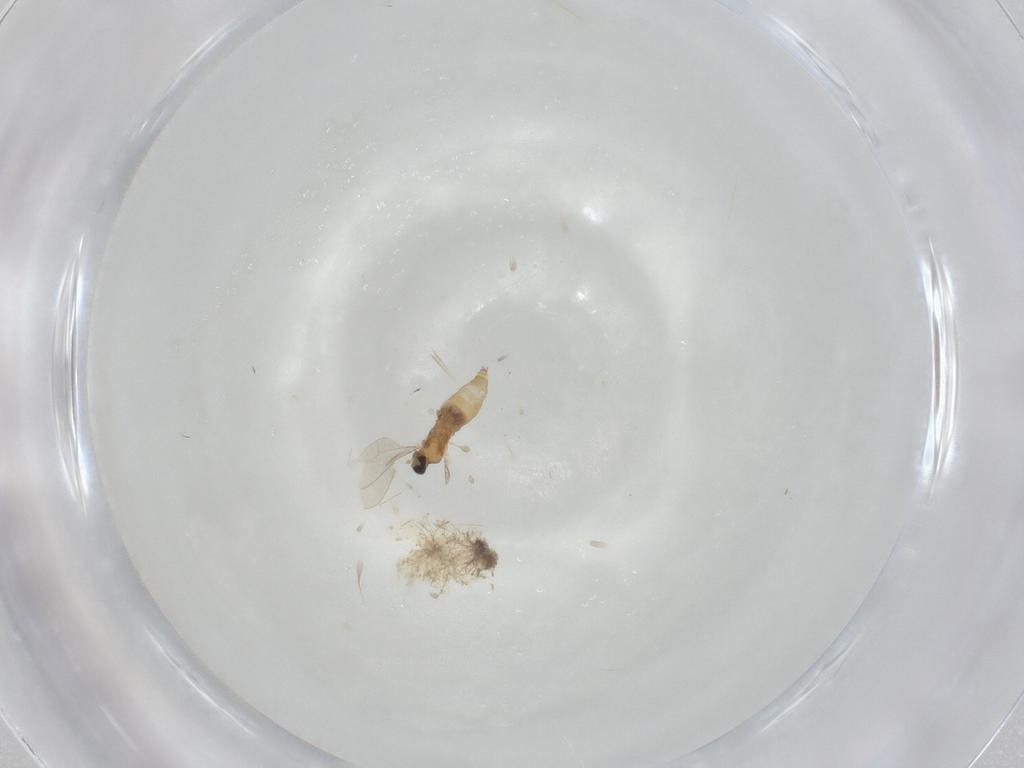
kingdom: Animalia
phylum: Arthropoda
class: Insecta
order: Diptera
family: Cecidomyiidae
